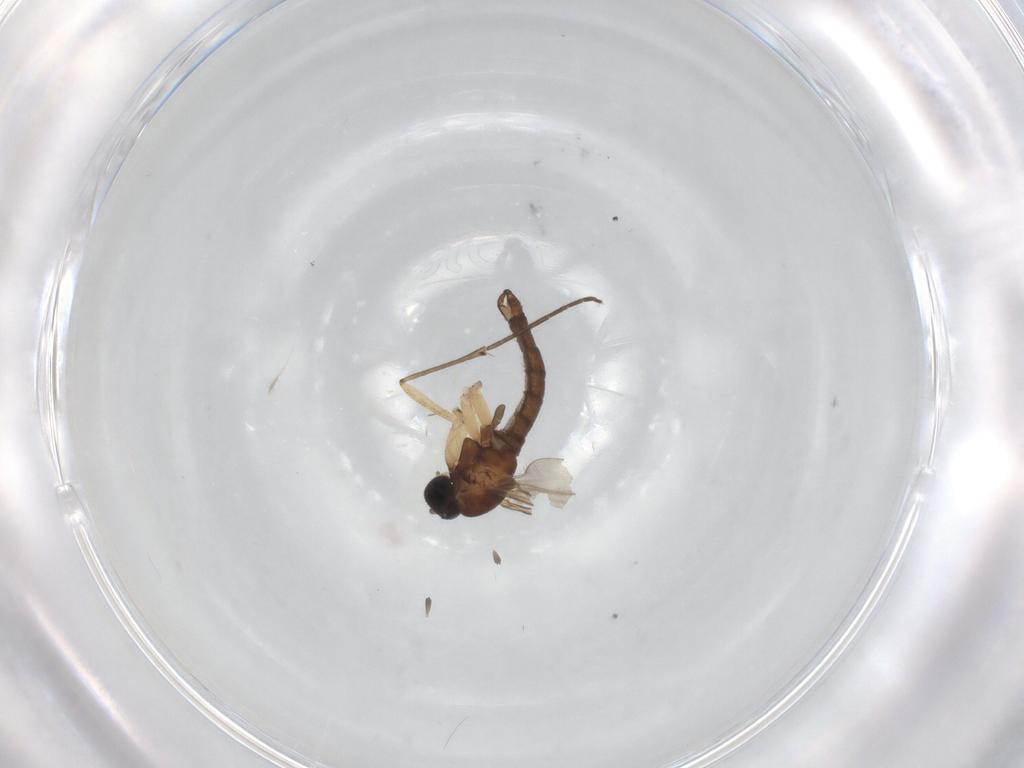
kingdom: Animalia
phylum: Arthropoda
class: Insecta
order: Diptera
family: Sciaridae
